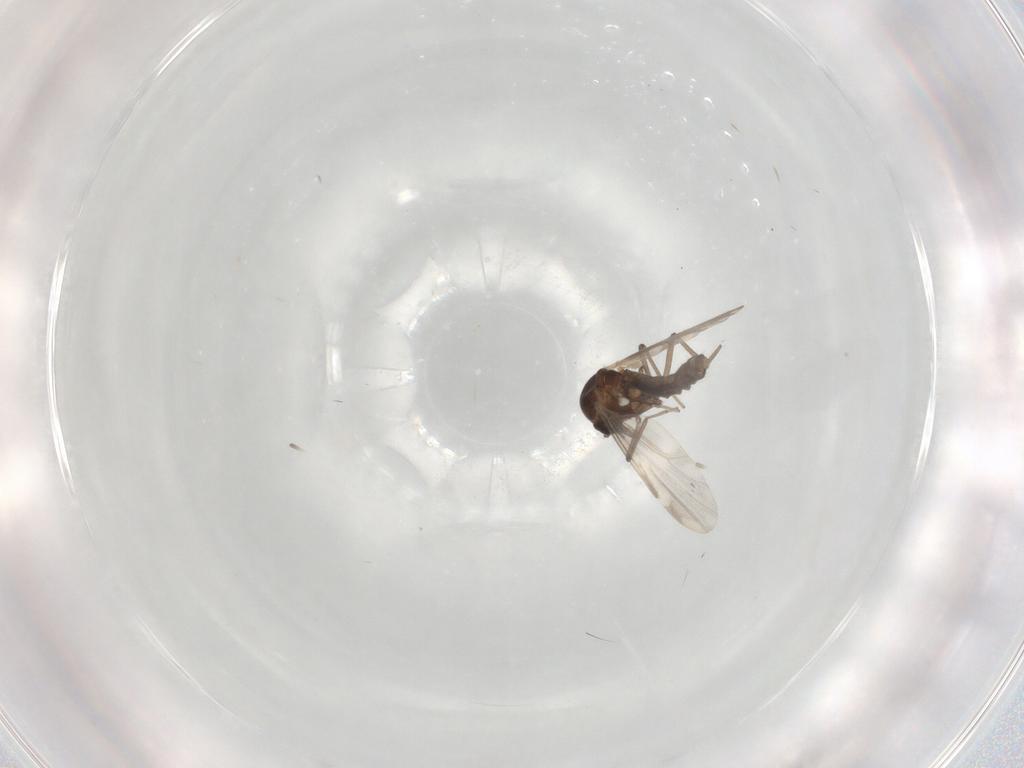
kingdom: Animalia
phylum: Arthropoda
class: Insecta
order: Diptera
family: Ceratopogonidae
